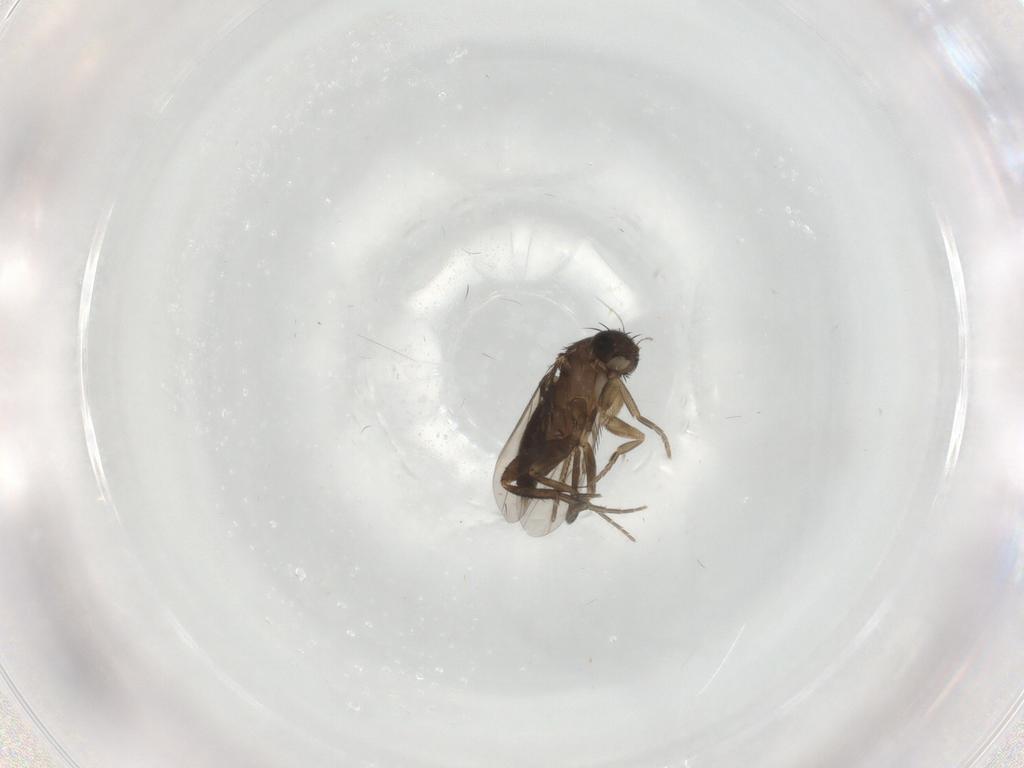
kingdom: Animalia
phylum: Arthropoda
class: Insecta
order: Diptera
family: Phoridae
